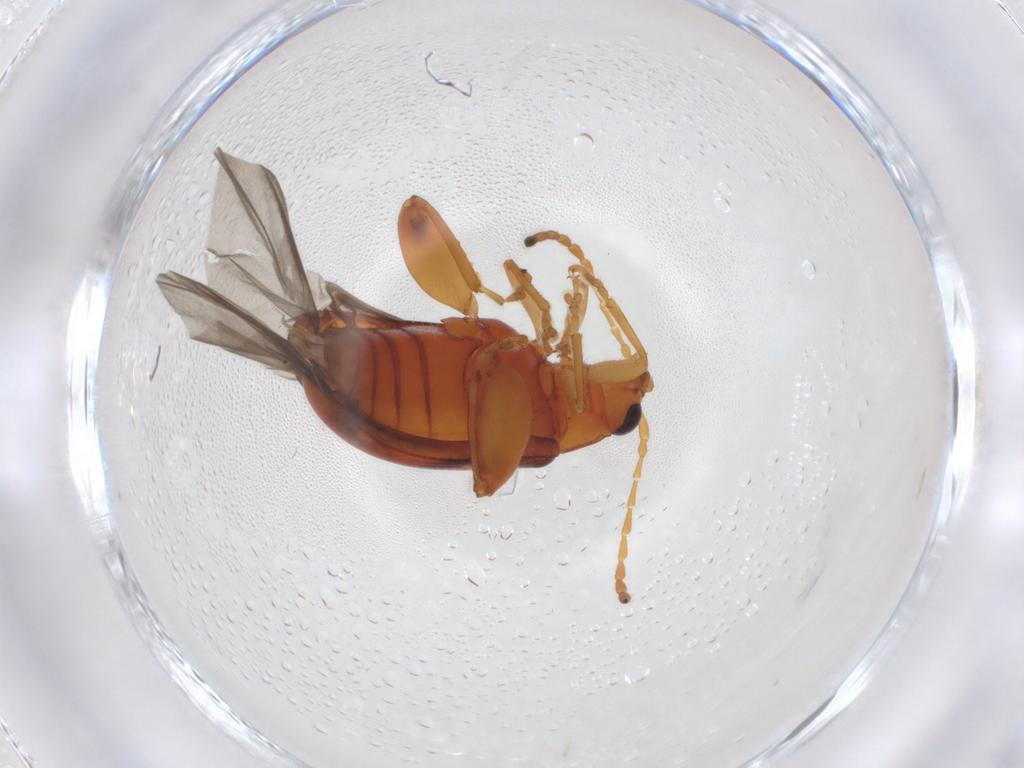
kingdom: Animalia
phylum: Arthropoda
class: Insecta
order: Coleoptera
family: Chrysomelidae
